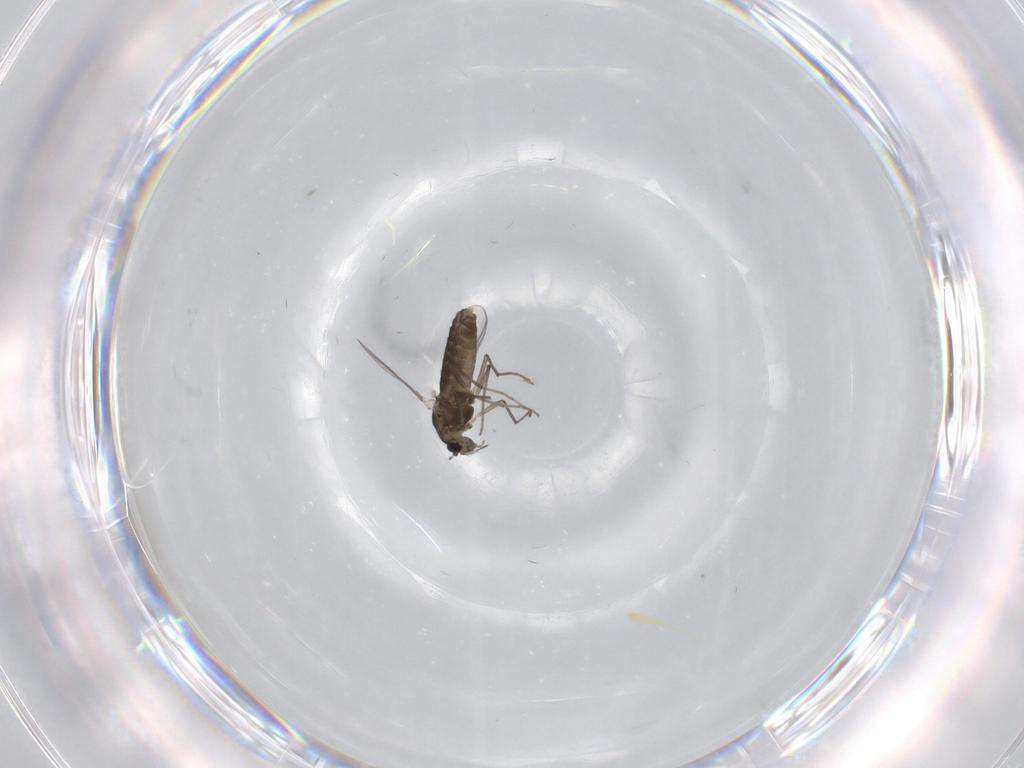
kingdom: Animalia
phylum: Arthropoda
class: Insecta
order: Diptera
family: Chironomidae
